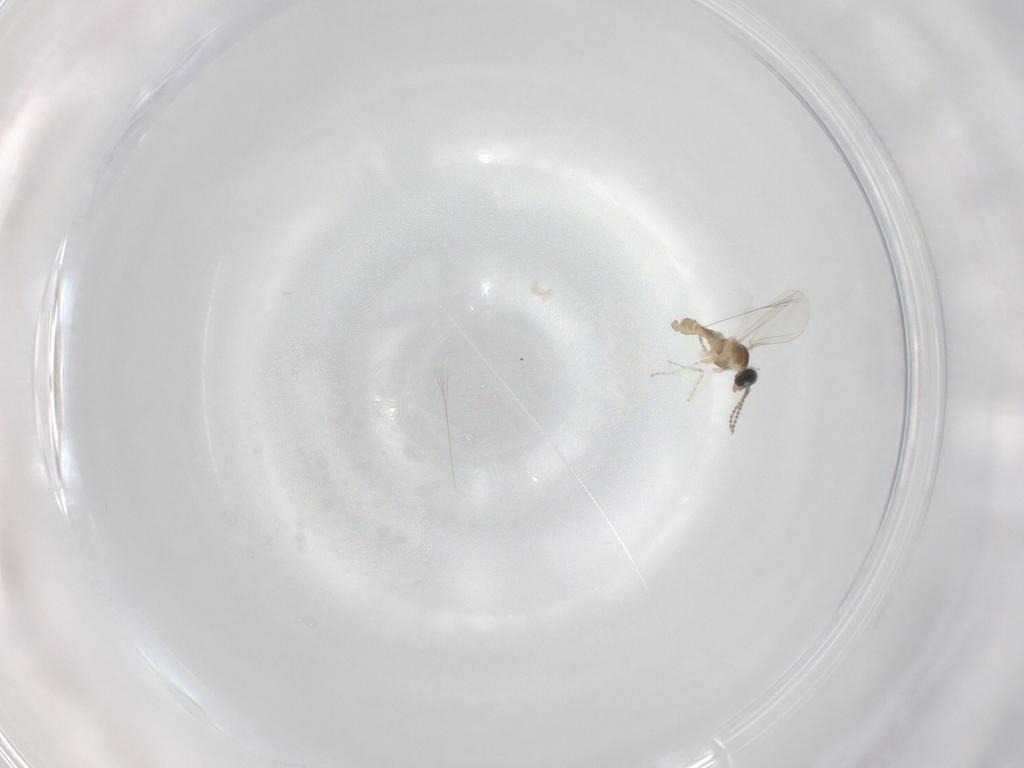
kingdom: Animalia
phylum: Arthropoda
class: Insecta
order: Diptera
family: Cecidomyiidae
